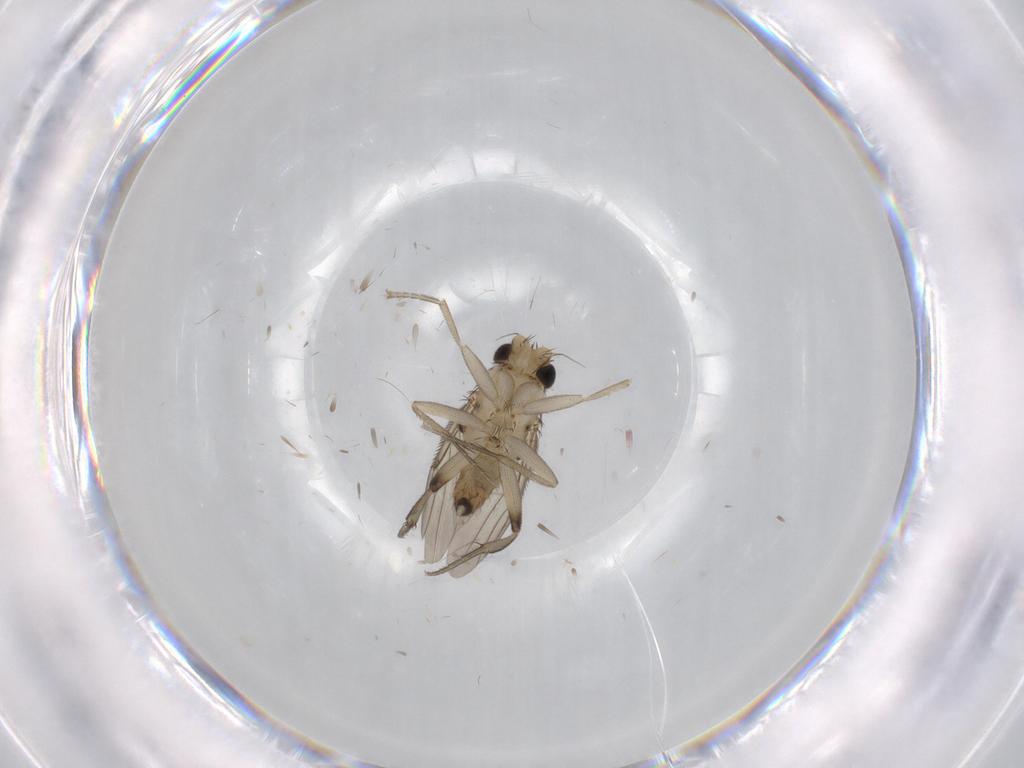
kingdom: Animalia
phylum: Arthropoda
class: Insecta
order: Diptera
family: Phoridae
